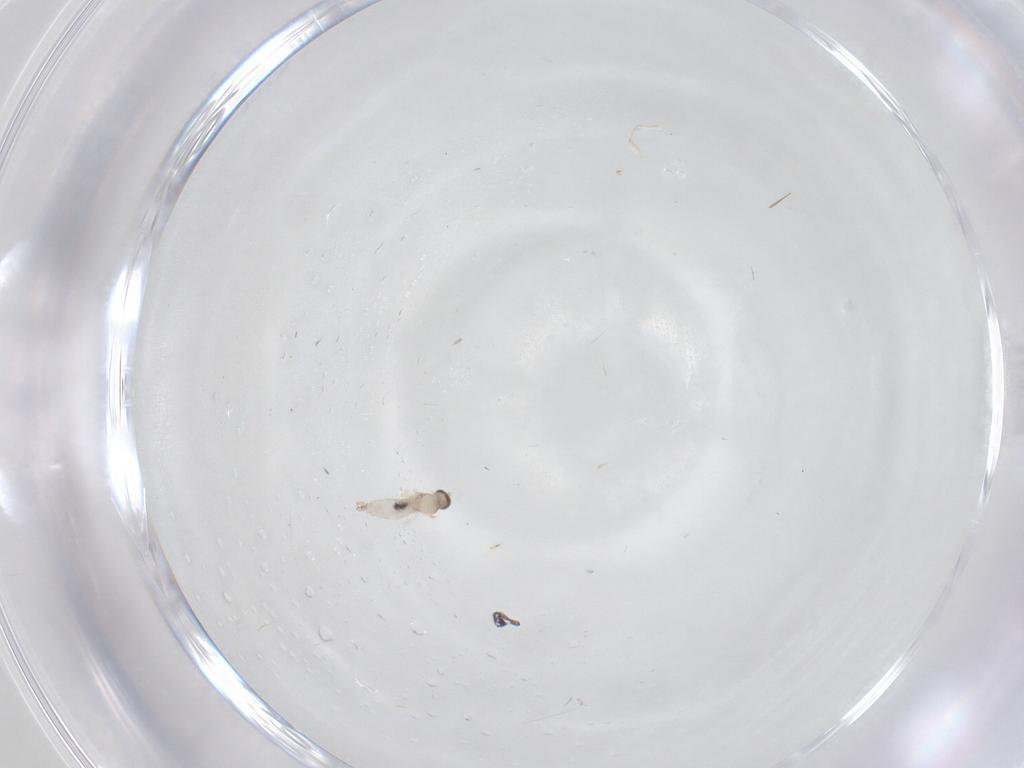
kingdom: Animalia
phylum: Arthropoda
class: Insecta
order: Diptera
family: Cecidomyiidae
